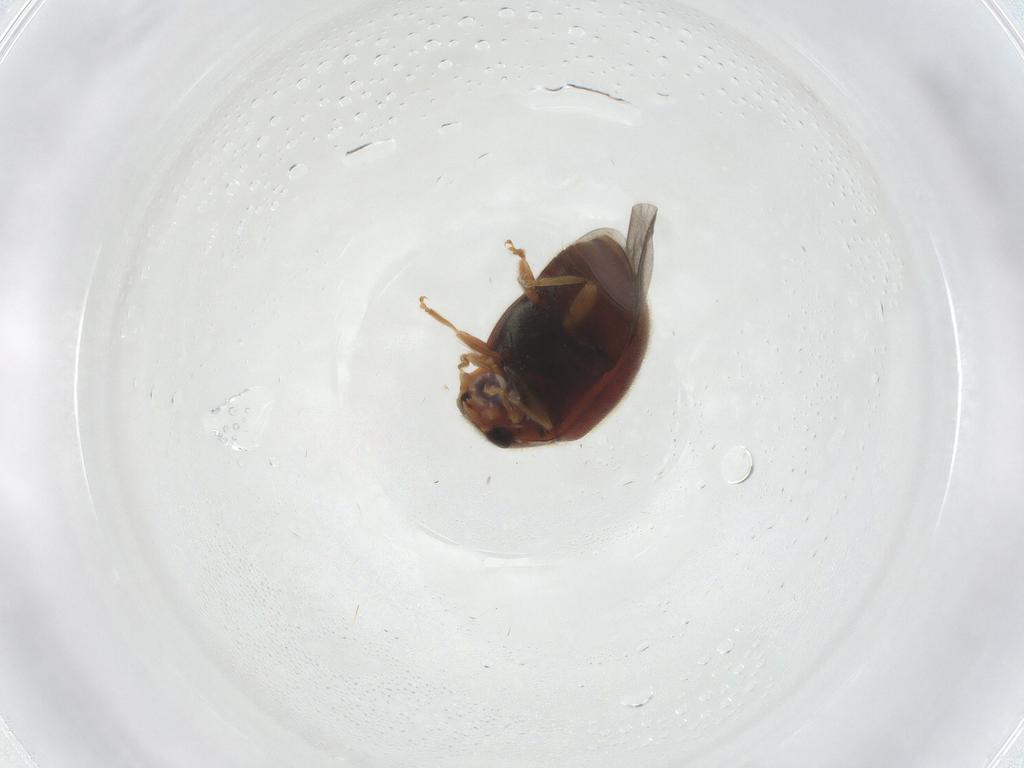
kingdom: Animalia
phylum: Arthropoda
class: Insecta
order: Coleoptera
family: Coccinellidae
